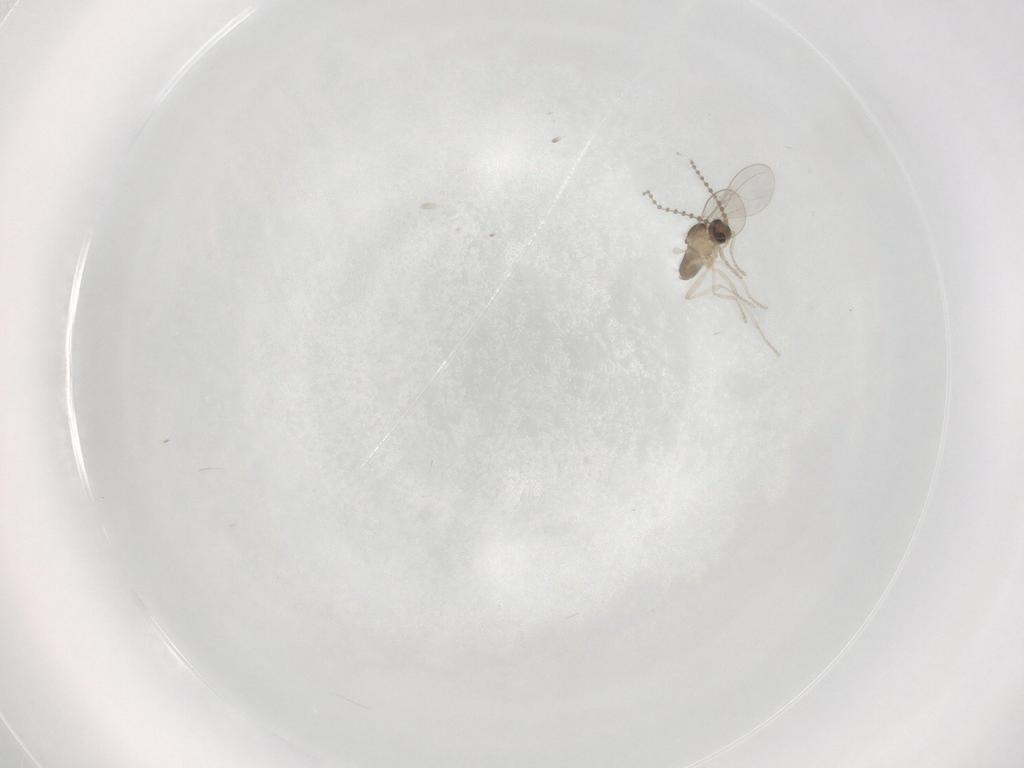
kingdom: Animalia
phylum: Arthropoda
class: Insecta
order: Diptera
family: Cecidomyiidae
